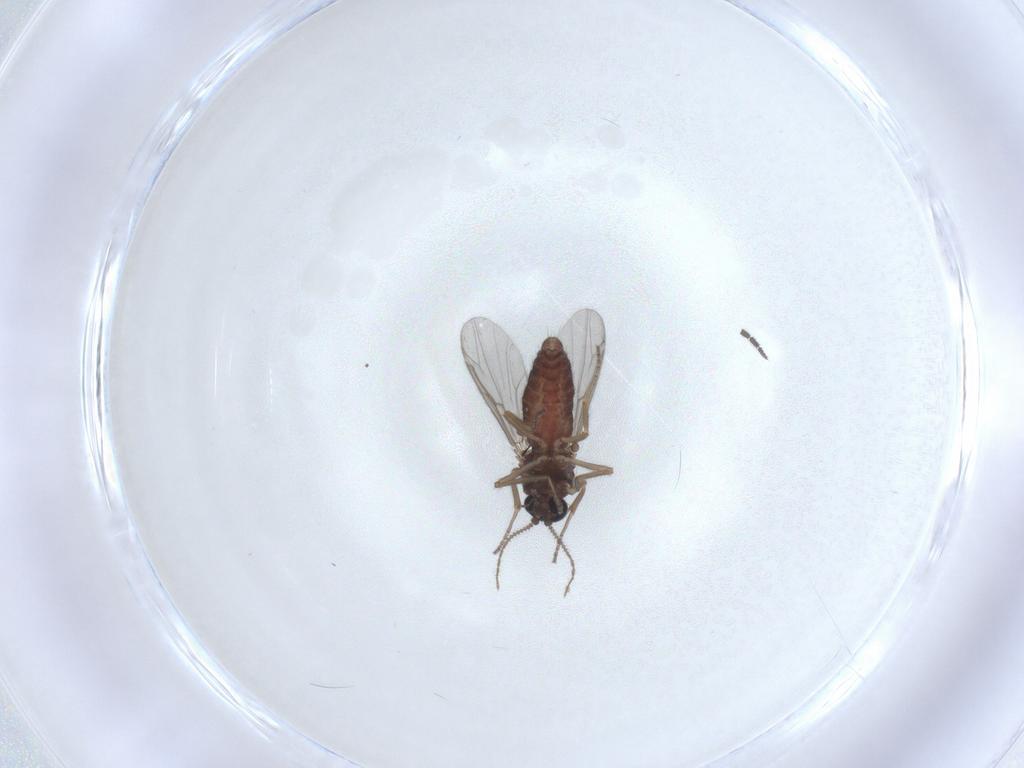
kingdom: Animalia
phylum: Arthropoda
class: Insecta
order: Diptera
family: Ceratopogonidae
